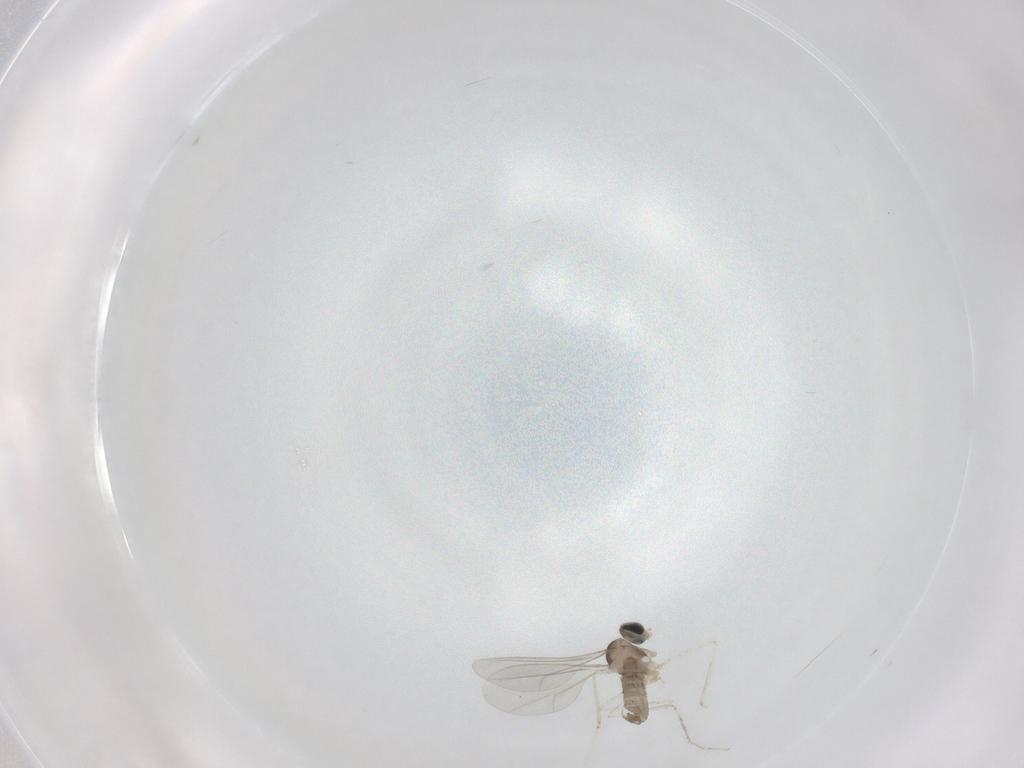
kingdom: Animalia
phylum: Arthropoda
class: Insecta
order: Diptera
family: Cecidomyiidae
